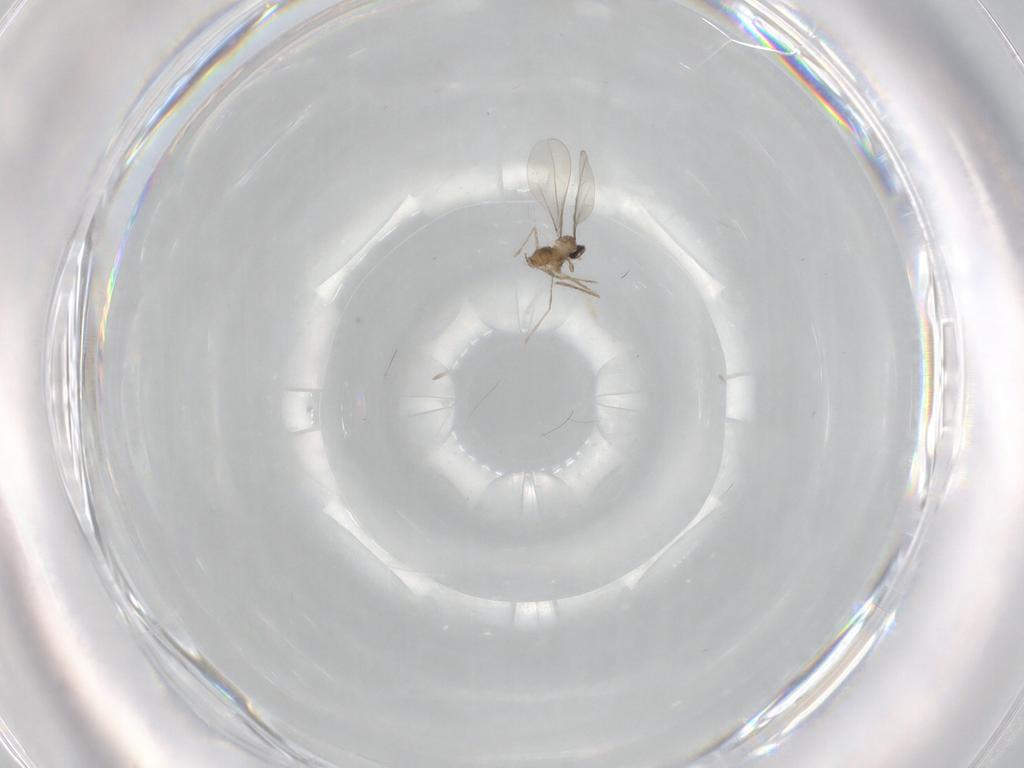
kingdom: Animalia
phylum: Arthropoda
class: Insecta
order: Diptera
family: Cecidomyiidae
